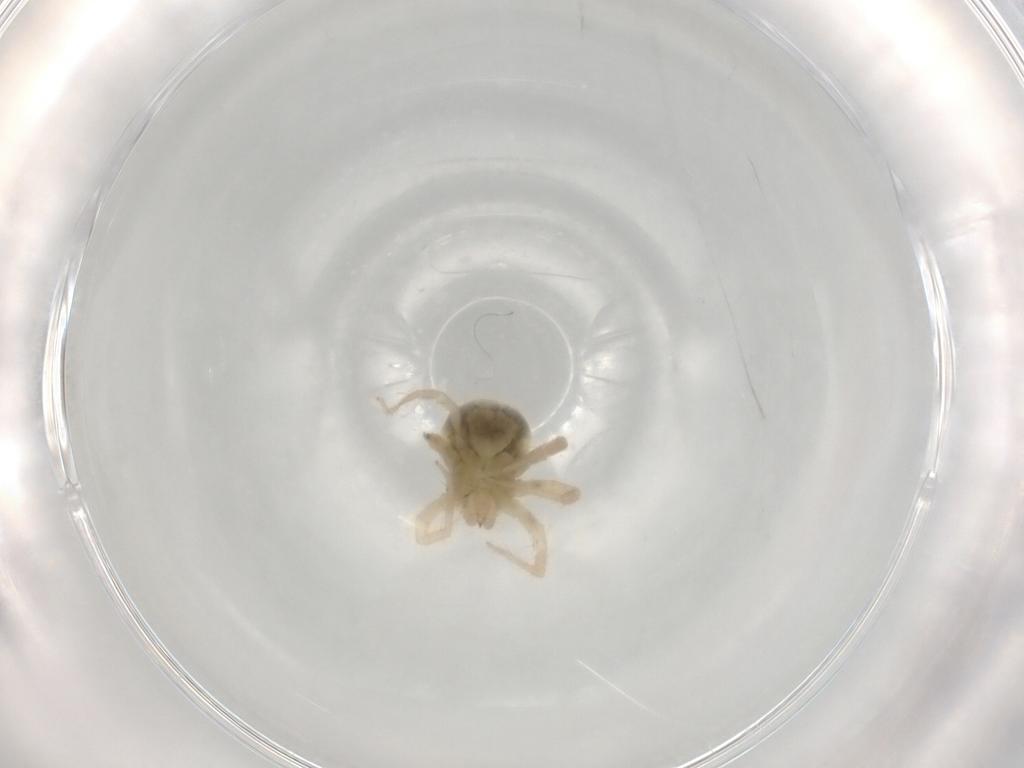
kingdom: Animalia
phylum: Arthropoda
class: Arachnida
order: Trombidiformes
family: Anystidae
